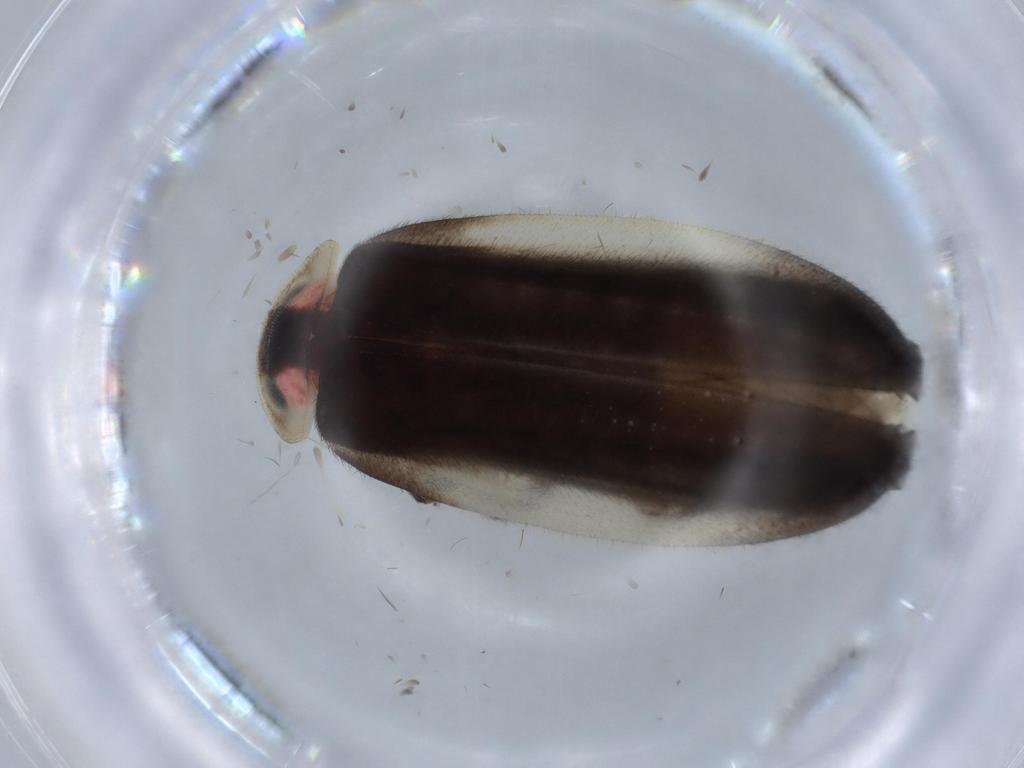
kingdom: Animalia
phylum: Arthropoda
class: Insecta
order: Coleoptera
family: Lampyridae
